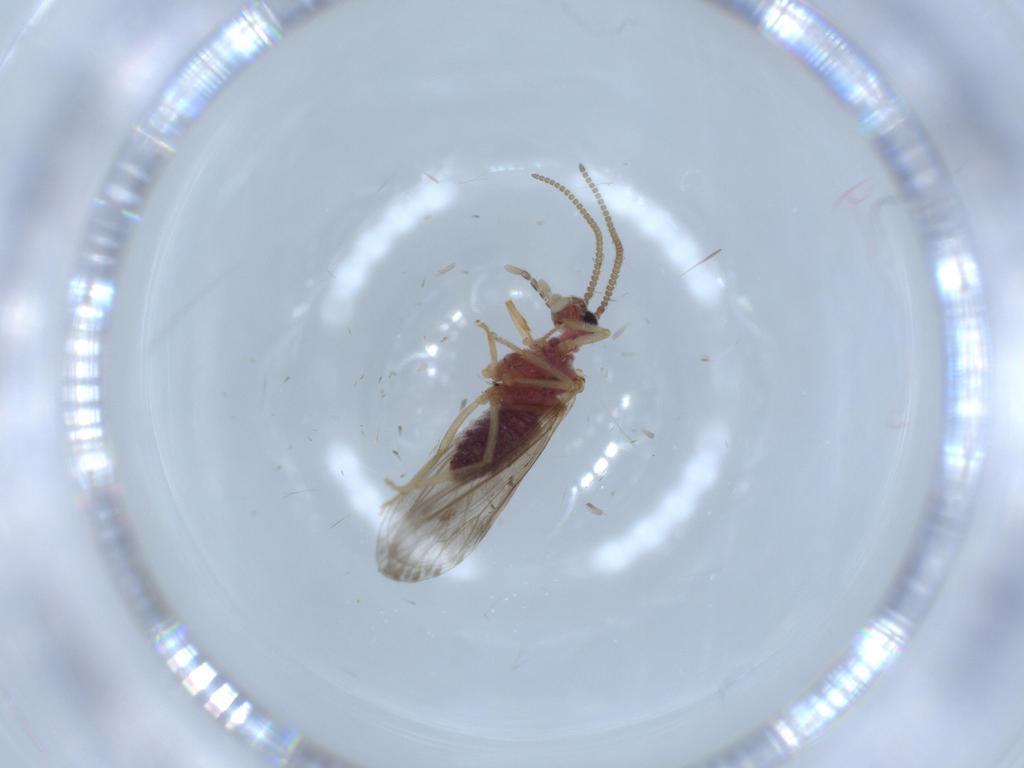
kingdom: Animalia
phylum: Arthropoda
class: Insecta
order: Neuroptera
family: Coniopterygidae
